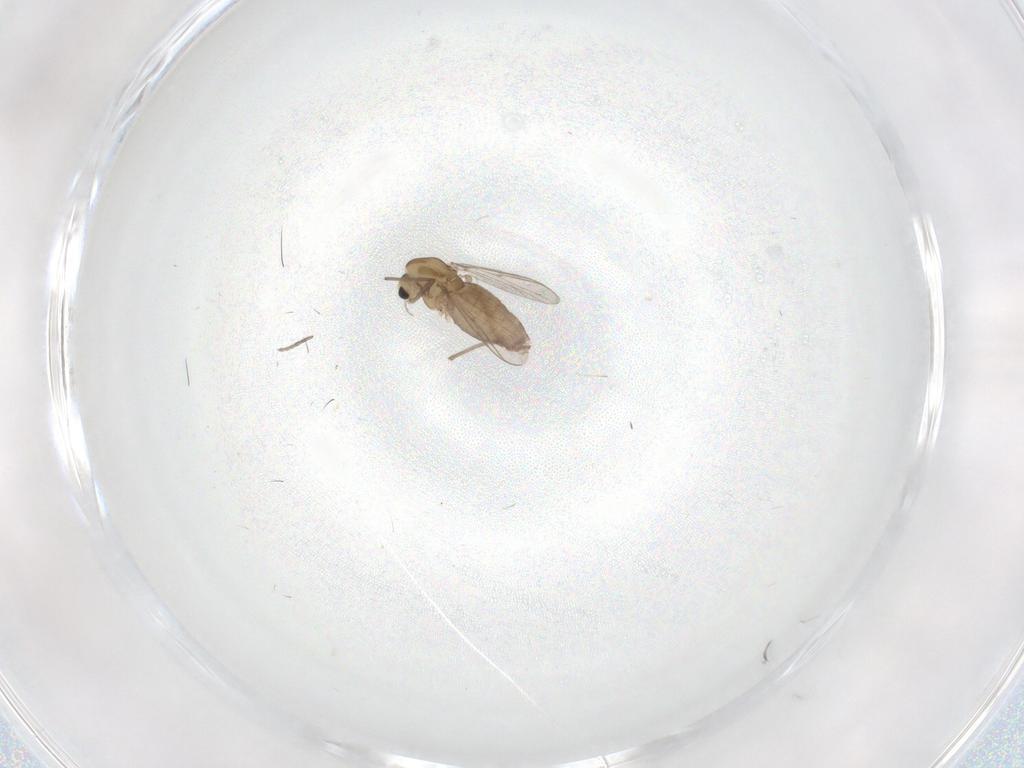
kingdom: Animalia
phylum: Arthropoda
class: Insecta
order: Diptera
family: Chironomidae
